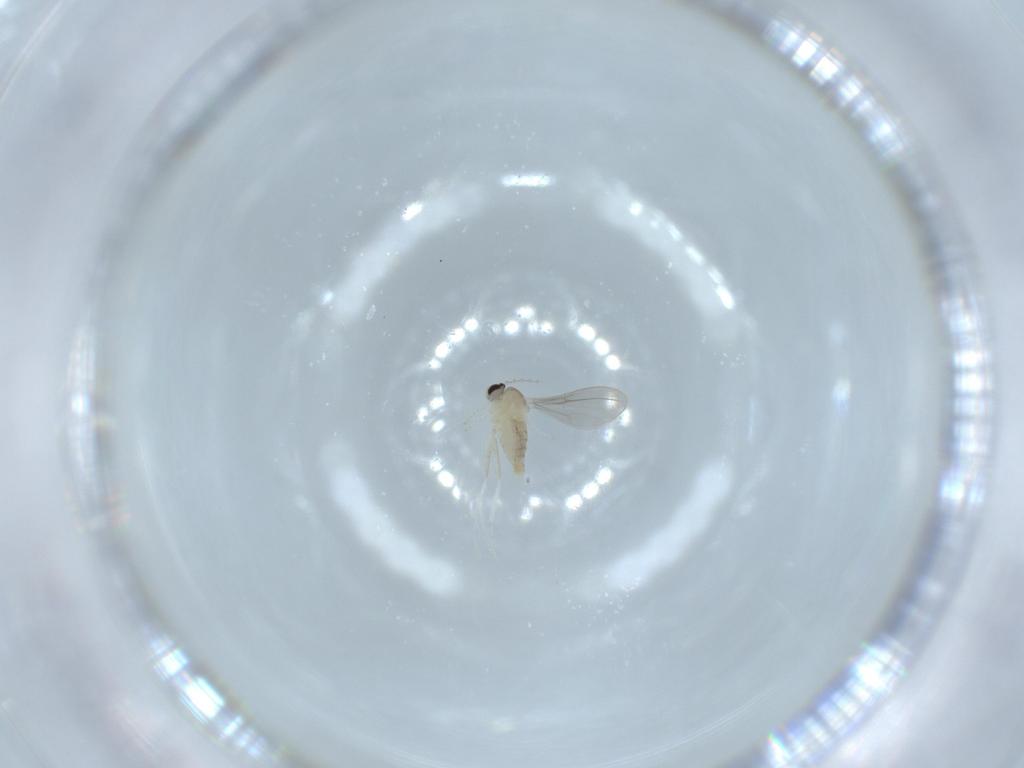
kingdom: Animalia
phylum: Arthropoda
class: Insecta
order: Diptera
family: Cecidomyiidae
